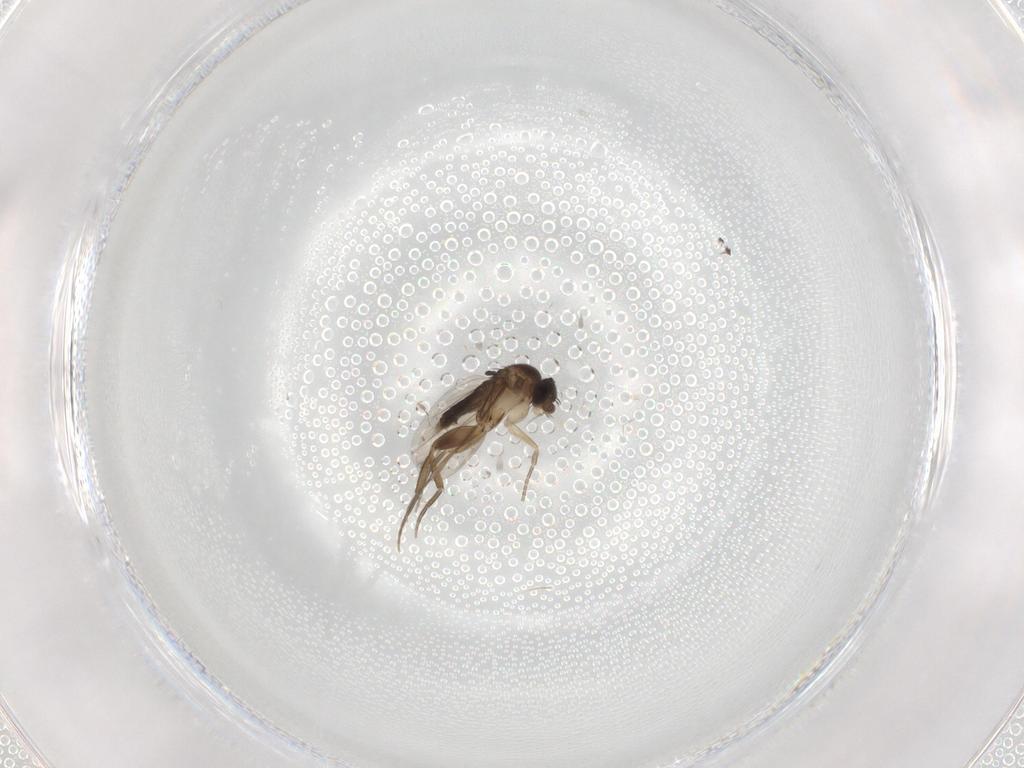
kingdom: Animalia
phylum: Arthropoda
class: Insecta
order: Diptera
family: Phoridae
